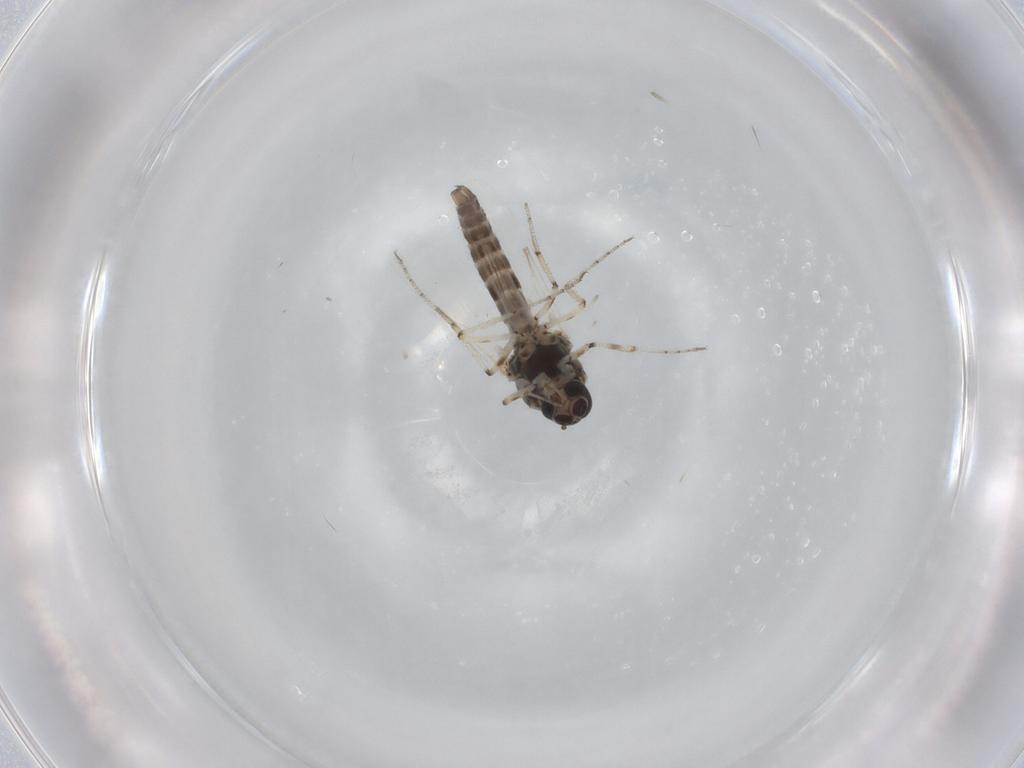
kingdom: Animalia
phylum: Arthropoda
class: Insecta
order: Diptera
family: Ceratopogonidae
